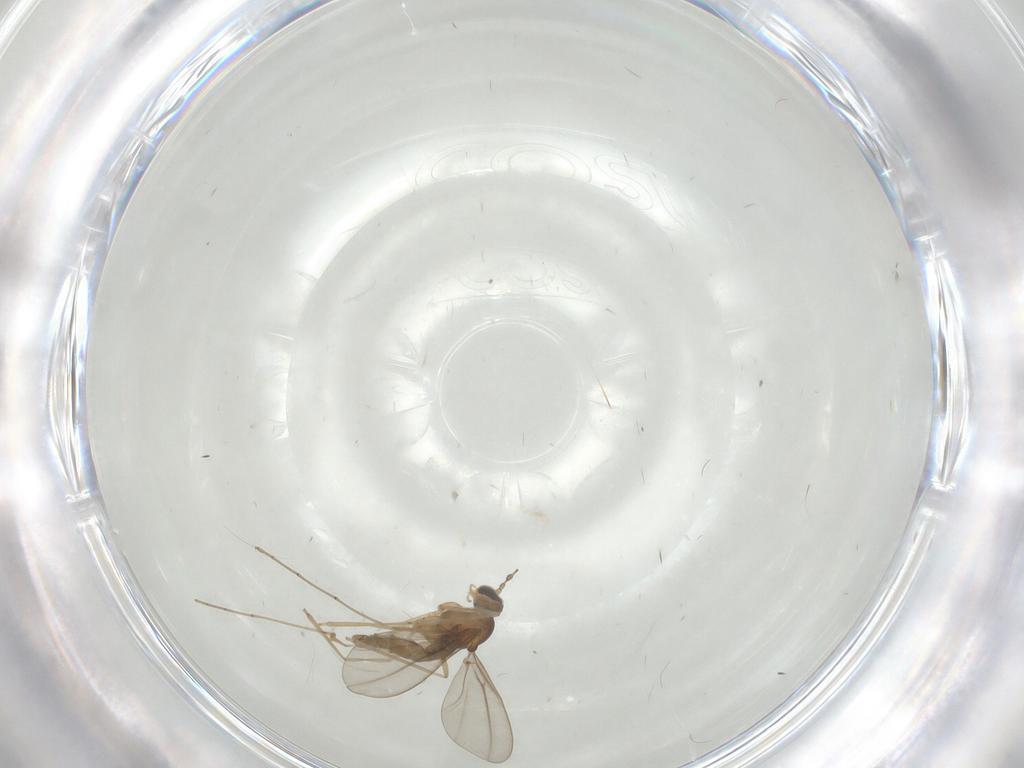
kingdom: Animalia
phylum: Arthropoda
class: Insecta
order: Diptera
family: Cecidomyiidae
